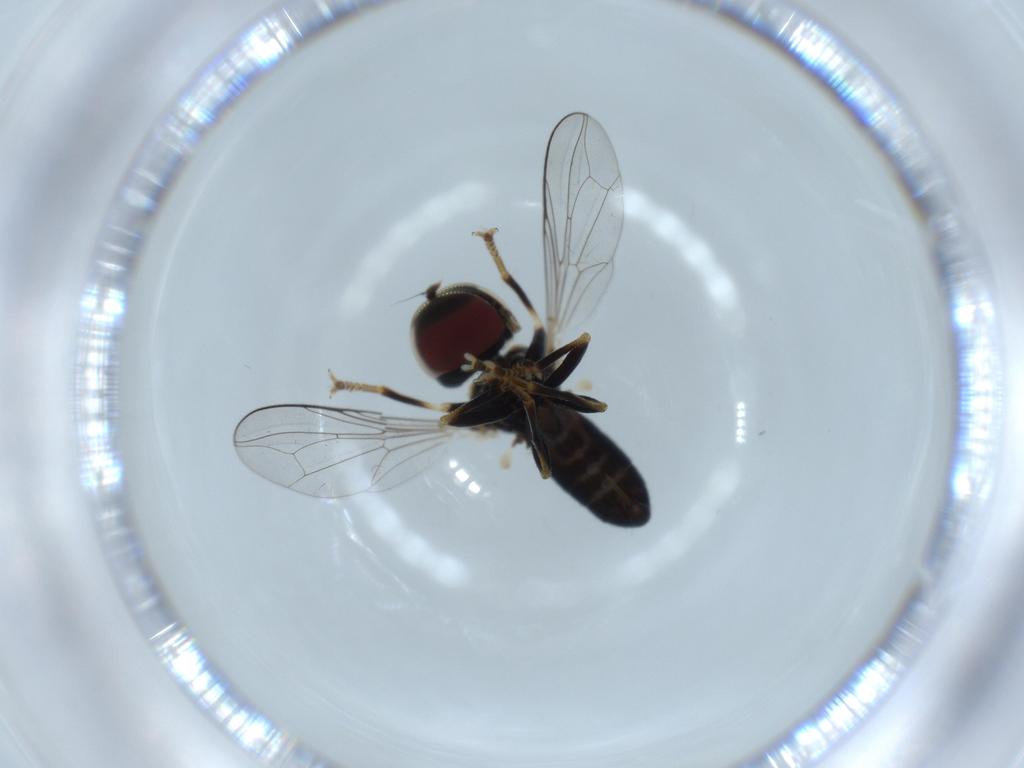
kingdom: Animalia
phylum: Arthropoda
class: Insecta
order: Diptera
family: Pipunculidae
